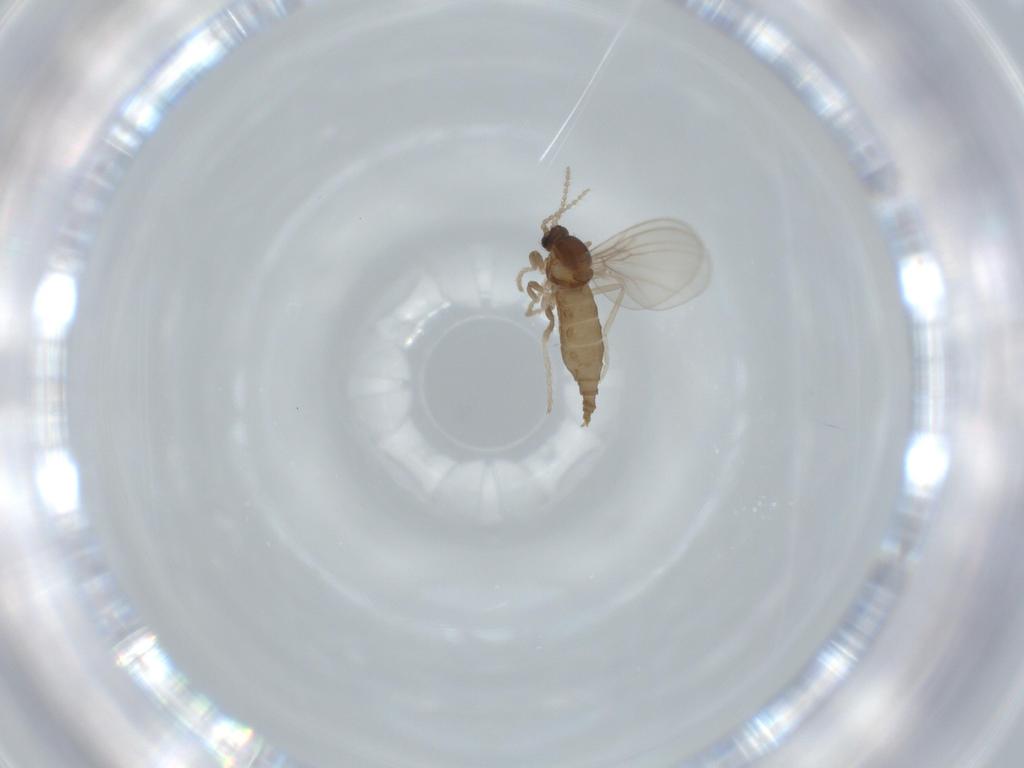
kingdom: Animalia
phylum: Arthropoda
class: Insecta
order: Diptera
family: Cecidomyiidae
